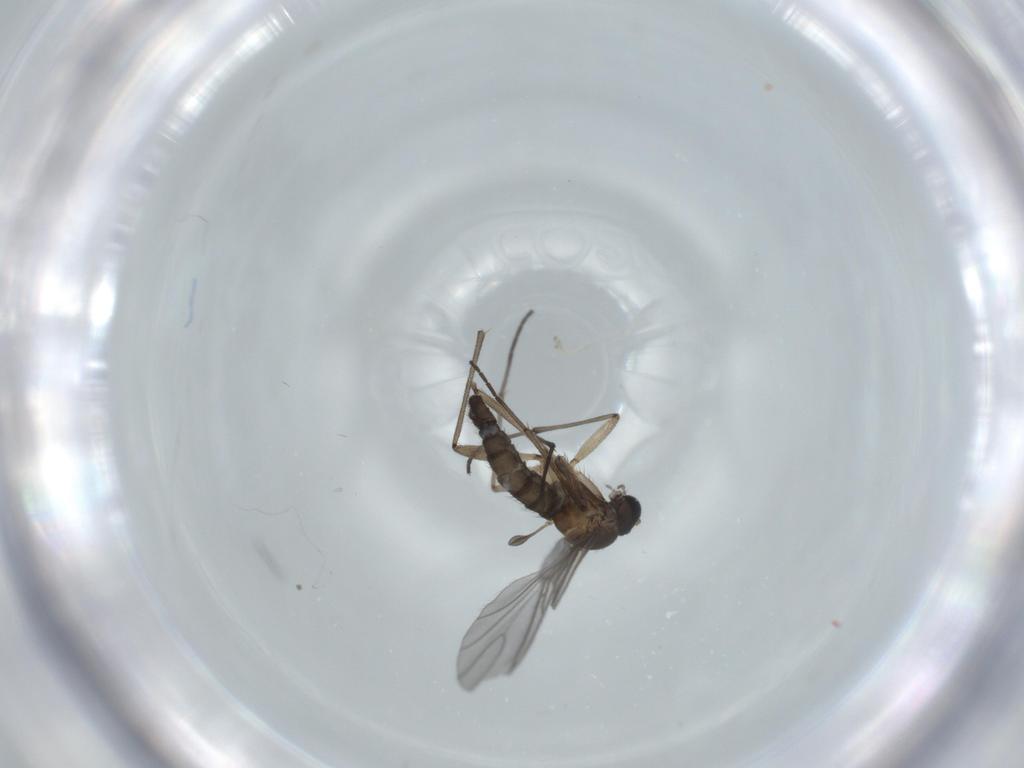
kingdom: Animalia
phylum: Arthropoda
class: Insecta
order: Diptera
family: Sciaridae
